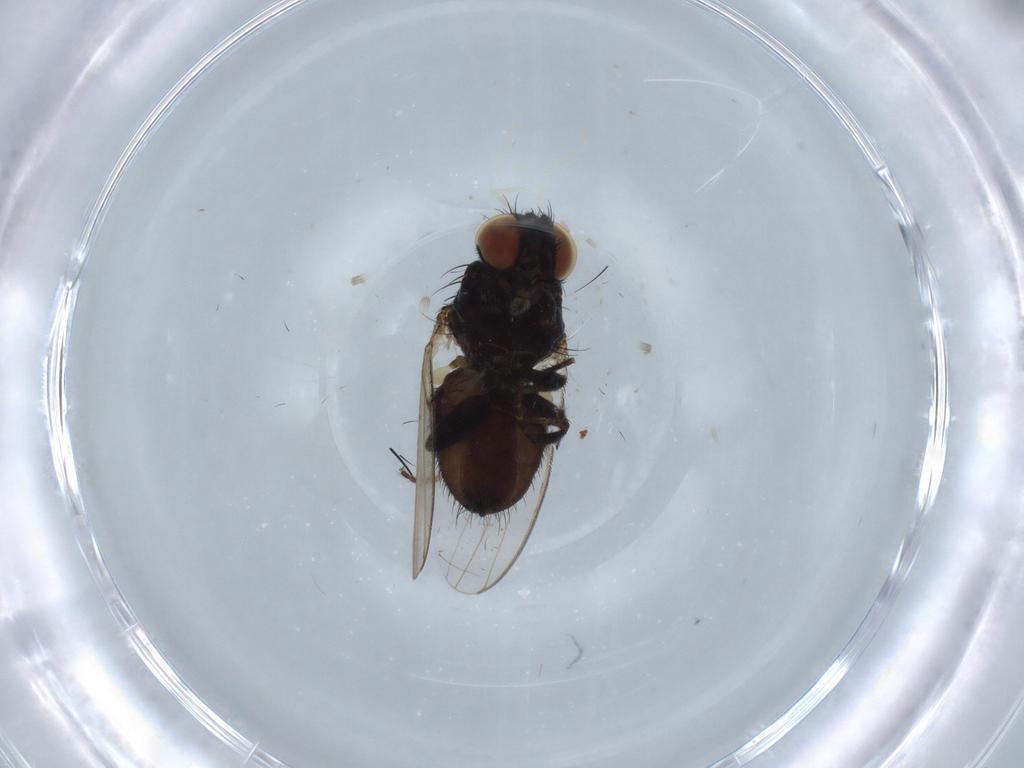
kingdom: Animalia
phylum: Arthropoda
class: Insecta
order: Diptera
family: Dolichopodidae
